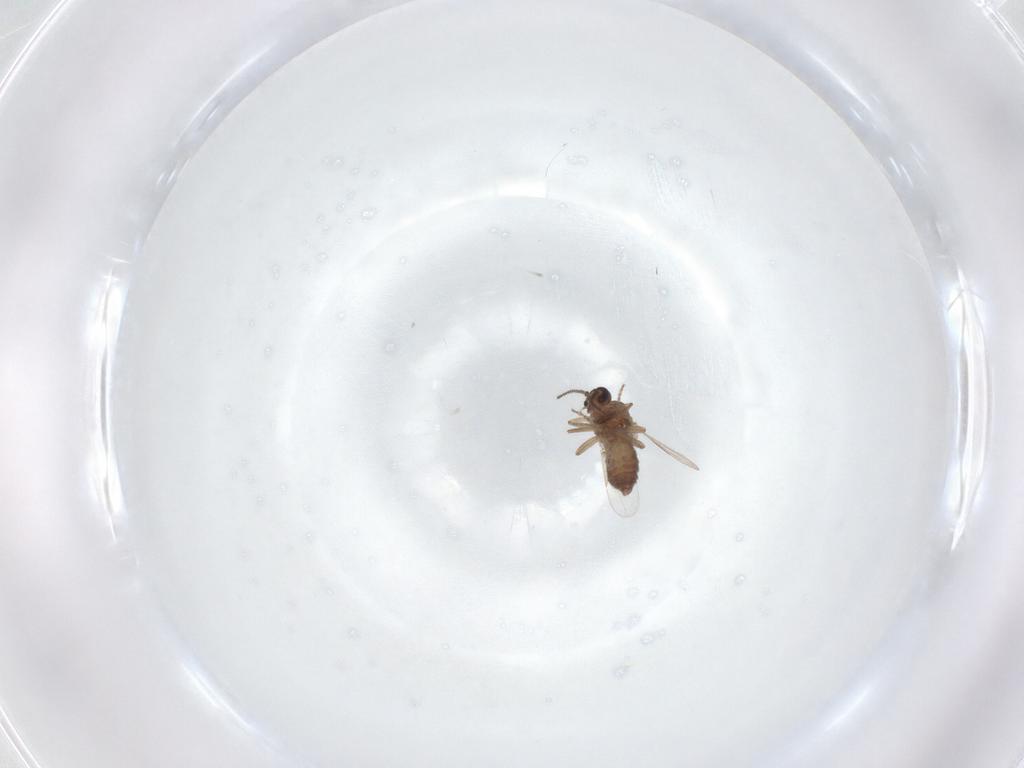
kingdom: Animalia
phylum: Arthropoda
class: Insecta
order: Diptera
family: Ceratopogonidae
